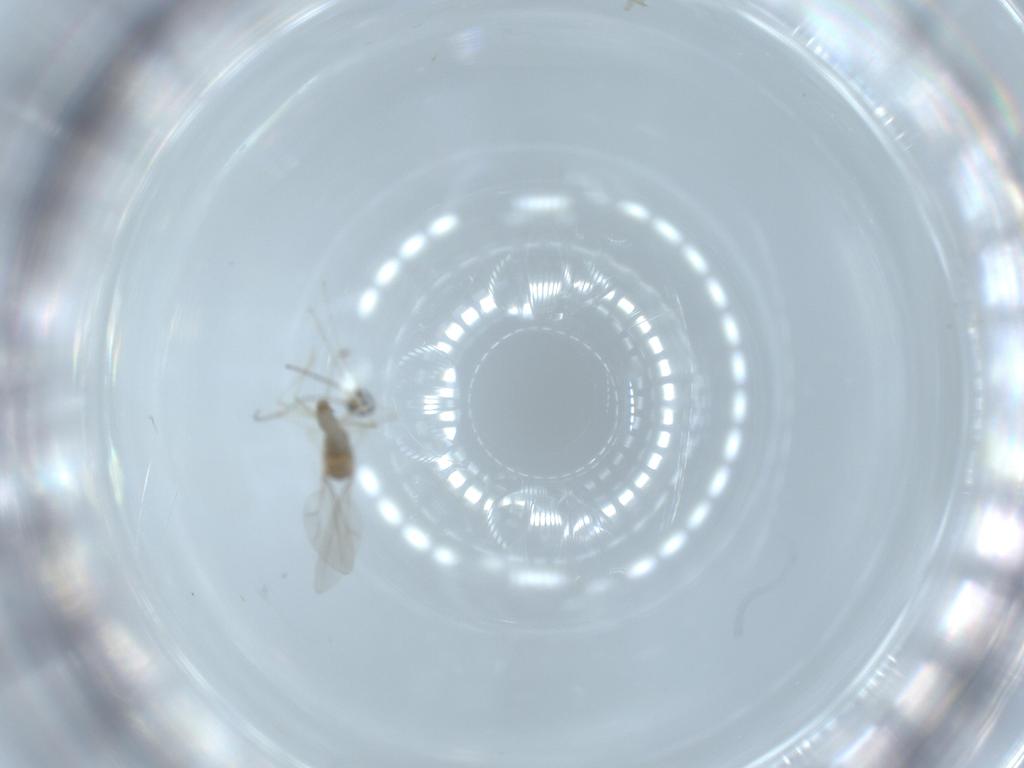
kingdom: Animalia
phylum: Arthropoda
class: Insecta
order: Diptera
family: Cecidomyiidae
